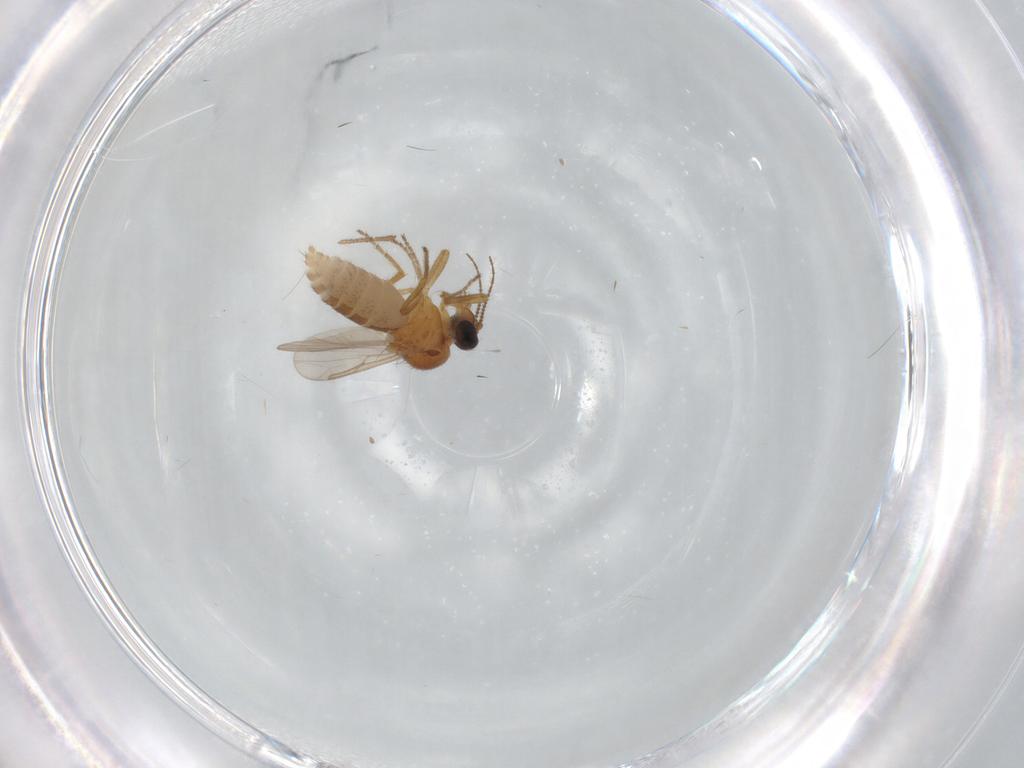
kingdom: Animalia
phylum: Arthropoda
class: Insecta
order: Diptera
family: Ceratopogonidae
